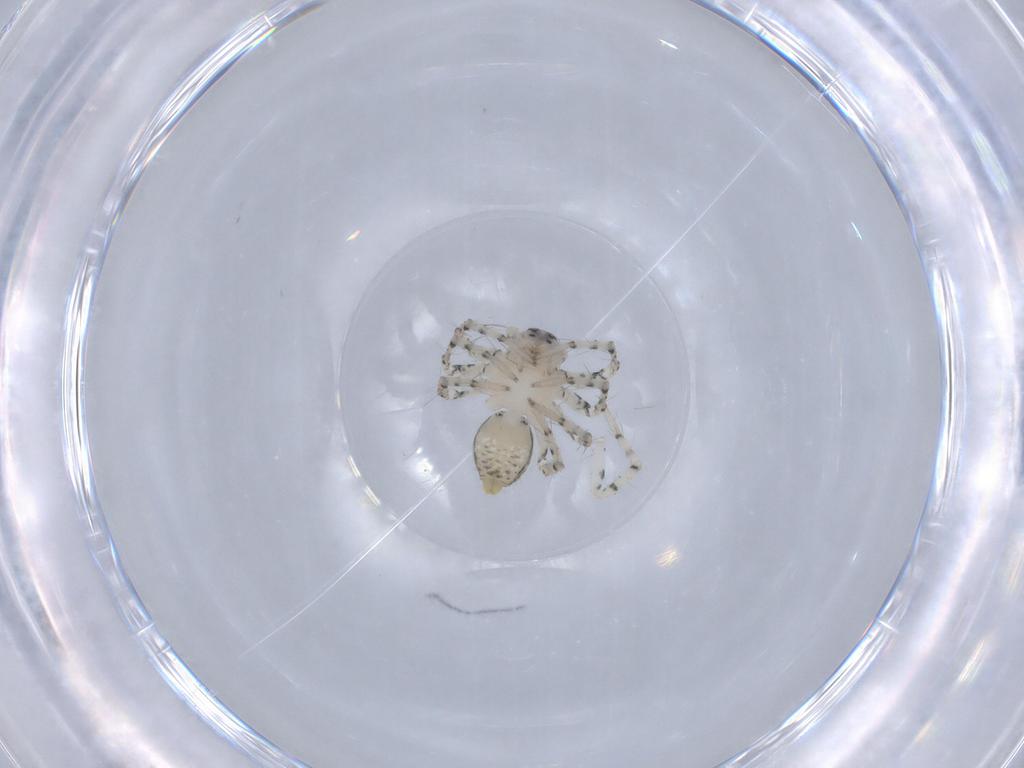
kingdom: Animalia
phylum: Arthropoda
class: Arachnida
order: Araneae
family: Oxyopidae
